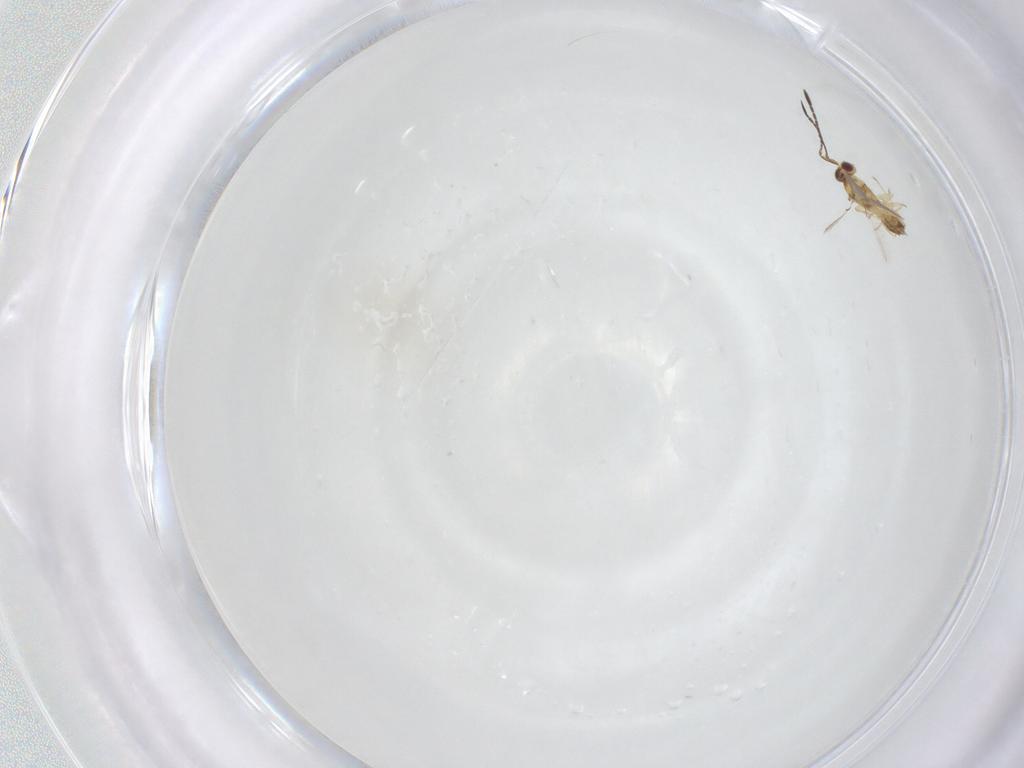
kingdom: Animalia
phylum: Arthropoda
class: Insecta
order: Hymenoptera
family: Mymaridae
